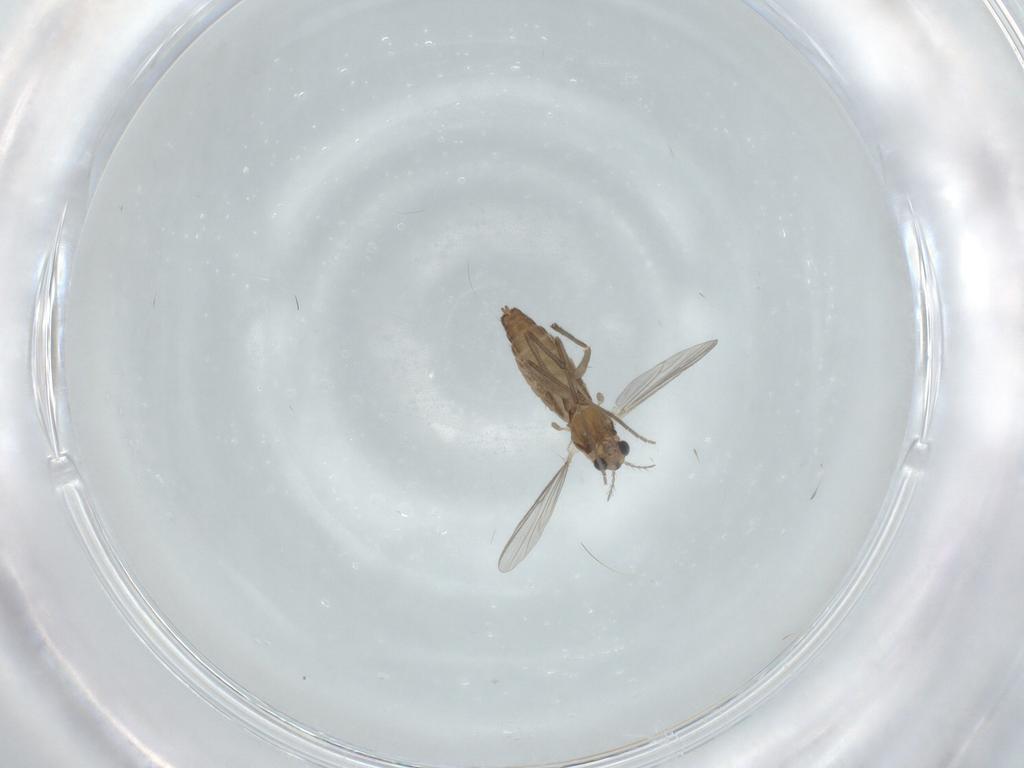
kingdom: Animalia
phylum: Arthropoda
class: Insecta
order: Diptera
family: Chironomidae
